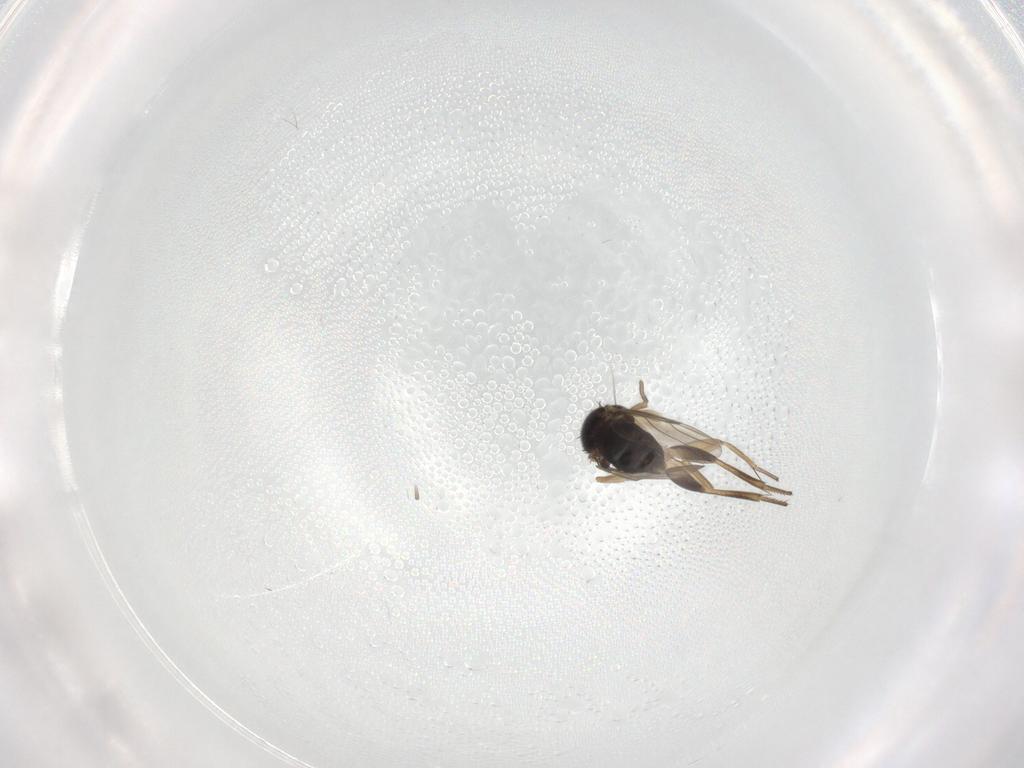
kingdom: Animalia
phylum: Arthropoda
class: Insecta
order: Diptera
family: Phoridae
